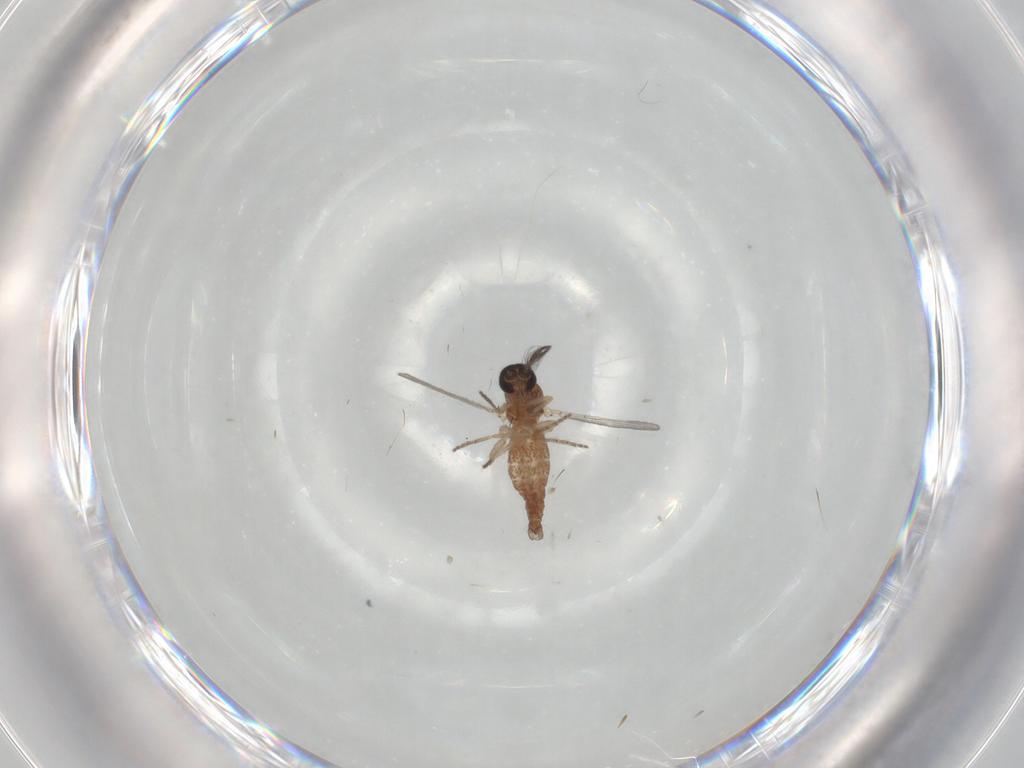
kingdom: Animalia
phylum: Arthropoda
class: Insecta
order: Diptera
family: Ceratopogonidae
